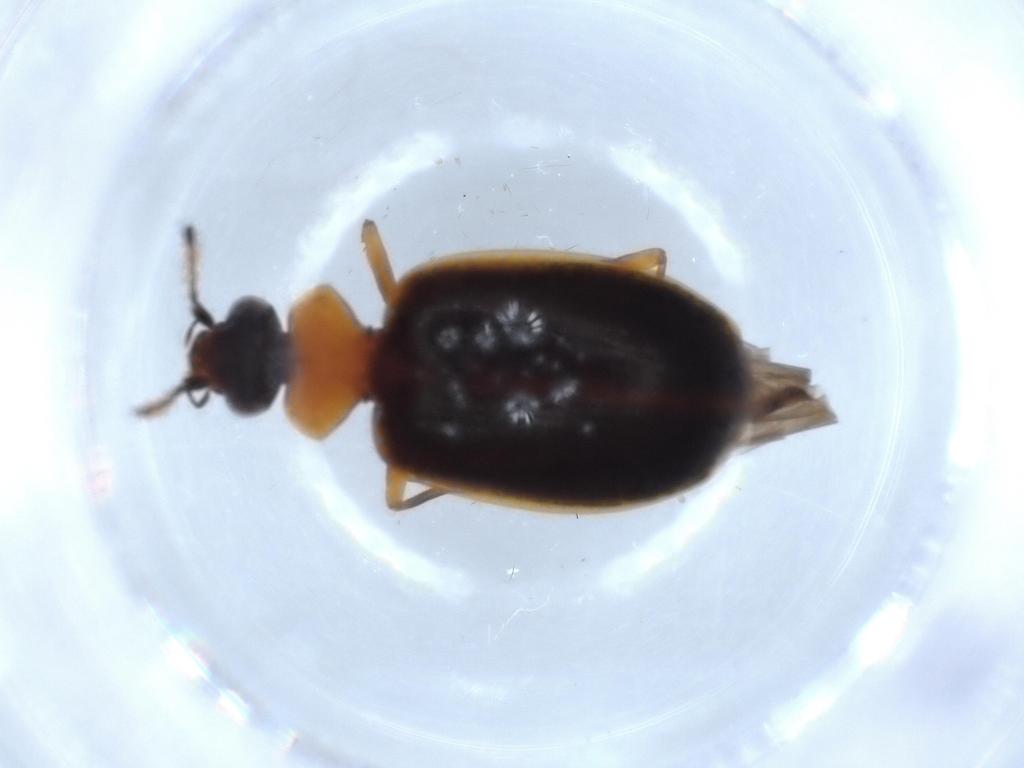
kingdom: Animalia
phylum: Arthropoda
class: Insecta
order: Coleoptera
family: Carabidae
